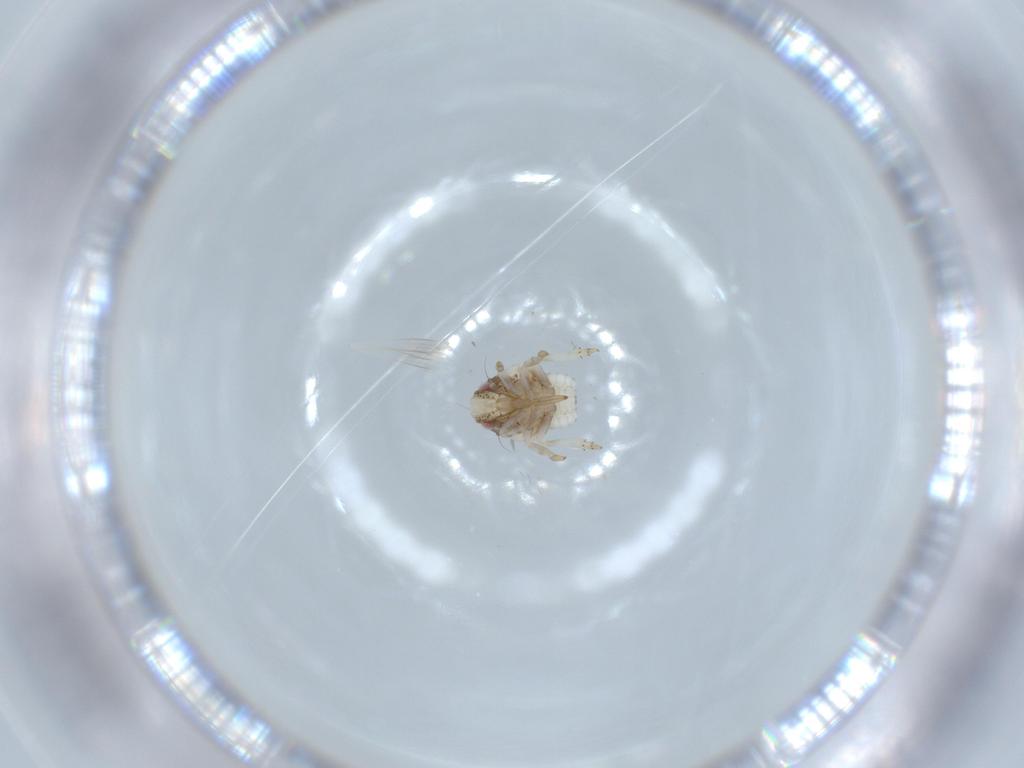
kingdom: Animalia
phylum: Arthropoda
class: Insecta
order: Hemiptera
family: Acanaloniidae
